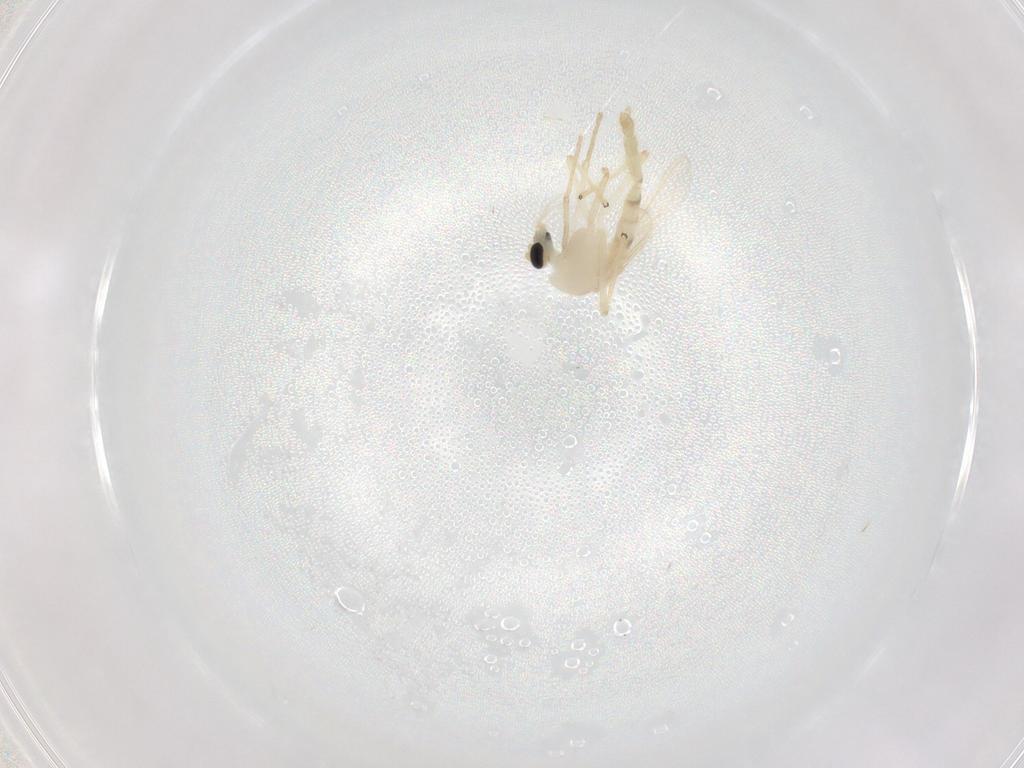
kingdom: Animalia
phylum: Arthropoda
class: Insecta
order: Diptera
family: Chironomidae
